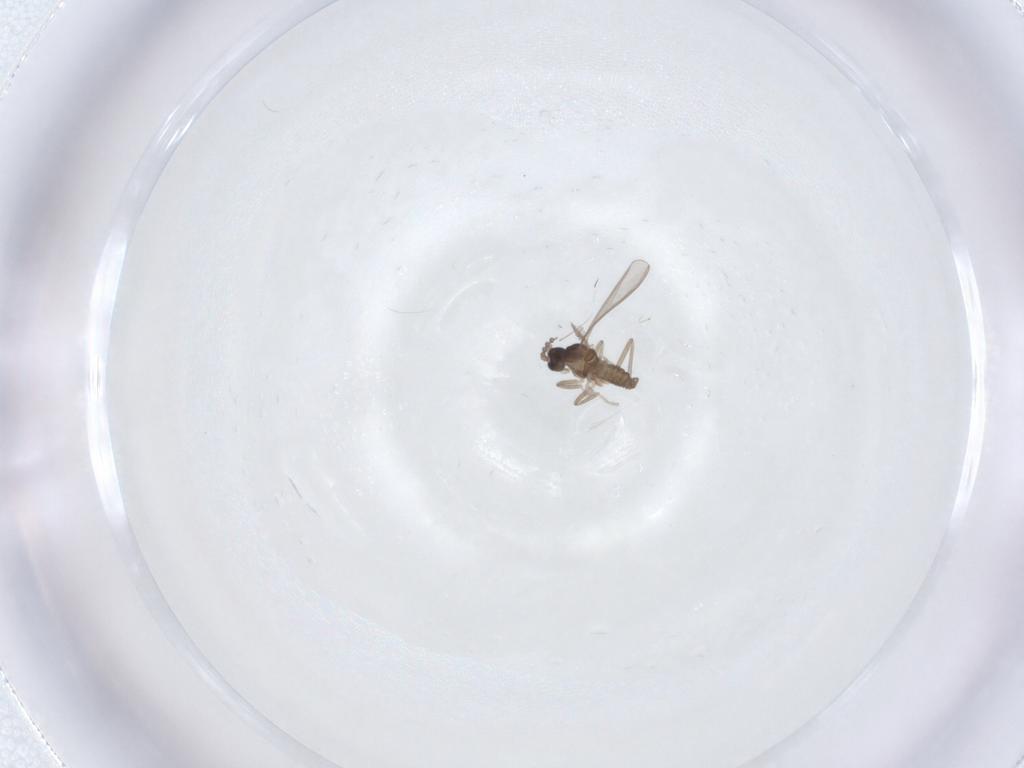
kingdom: Animalia
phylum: Arthropoda
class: Insecta
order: Diptera
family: Cecidomyiidae
